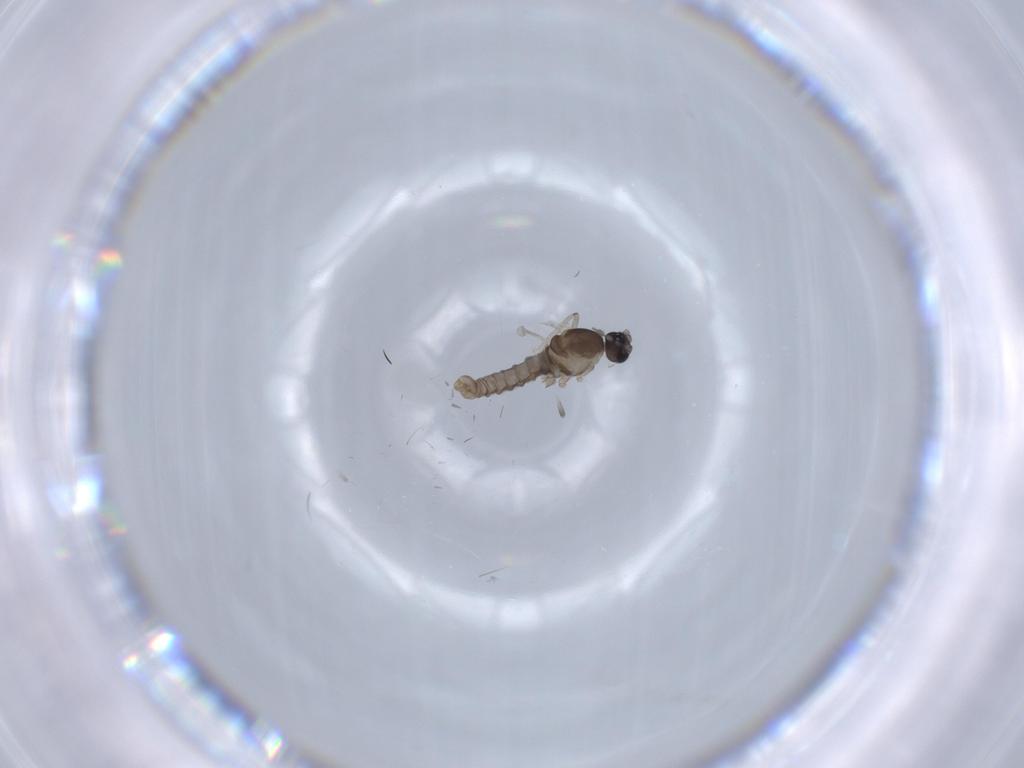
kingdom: Animalia
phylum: Arthropoda
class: Insecta
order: Diptera
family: Cecidomyiidae
